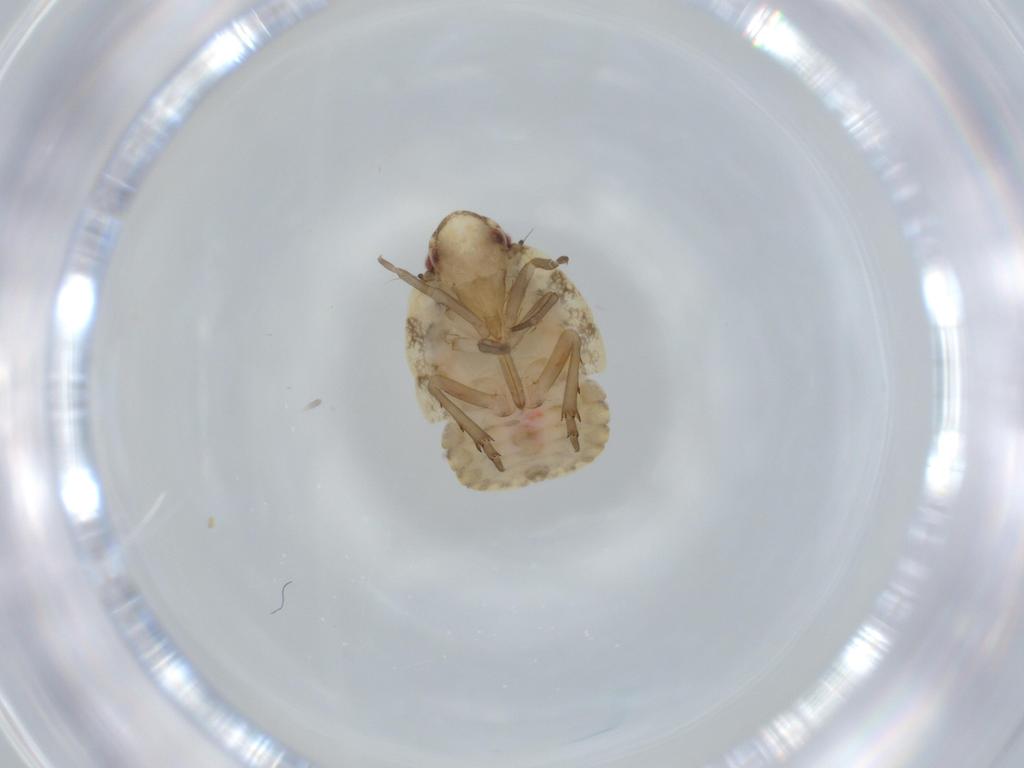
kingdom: Animalia
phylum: Arthropoda
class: Insecta
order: Hemiptera
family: Flatidae
